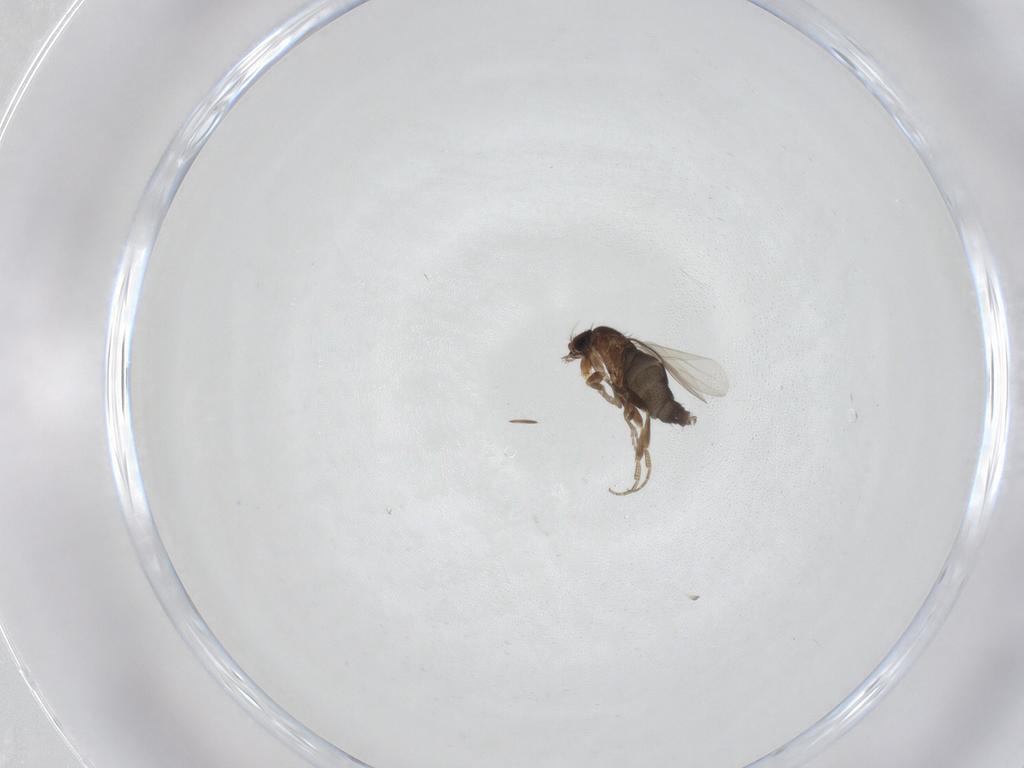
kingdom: Animalia
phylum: Arthropoda
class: Insecta
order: Diptera
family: Phoridae
